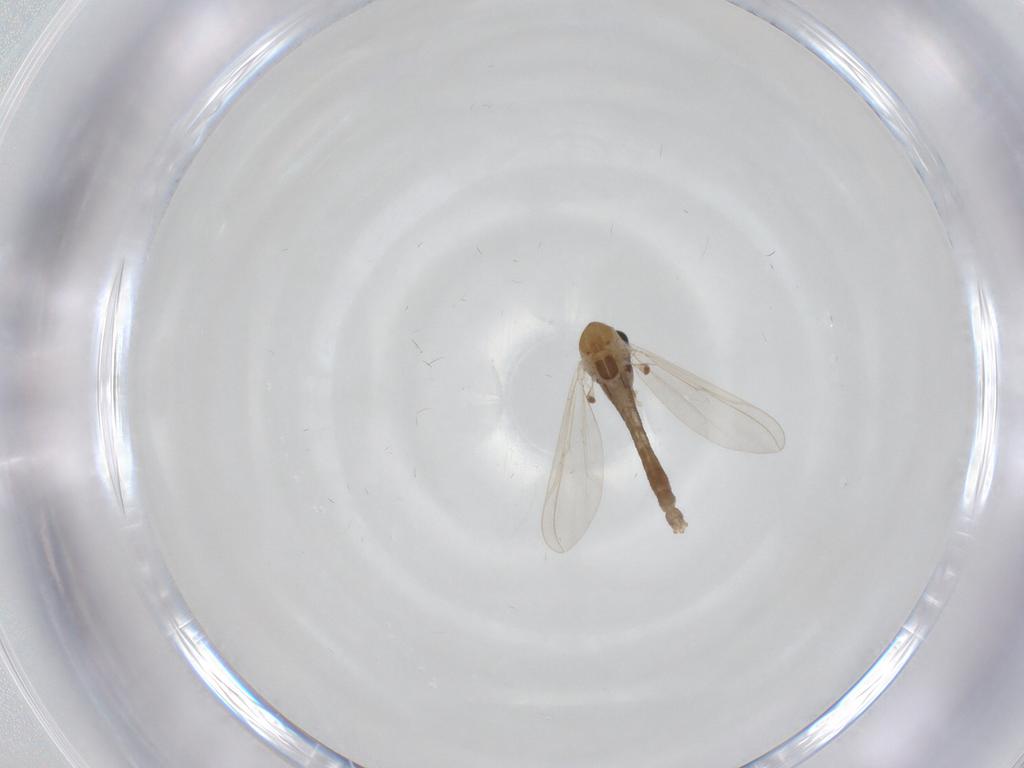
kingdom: Animalia
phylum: Arthropoda
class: Insecta
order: Diptera
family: Chironomidae
